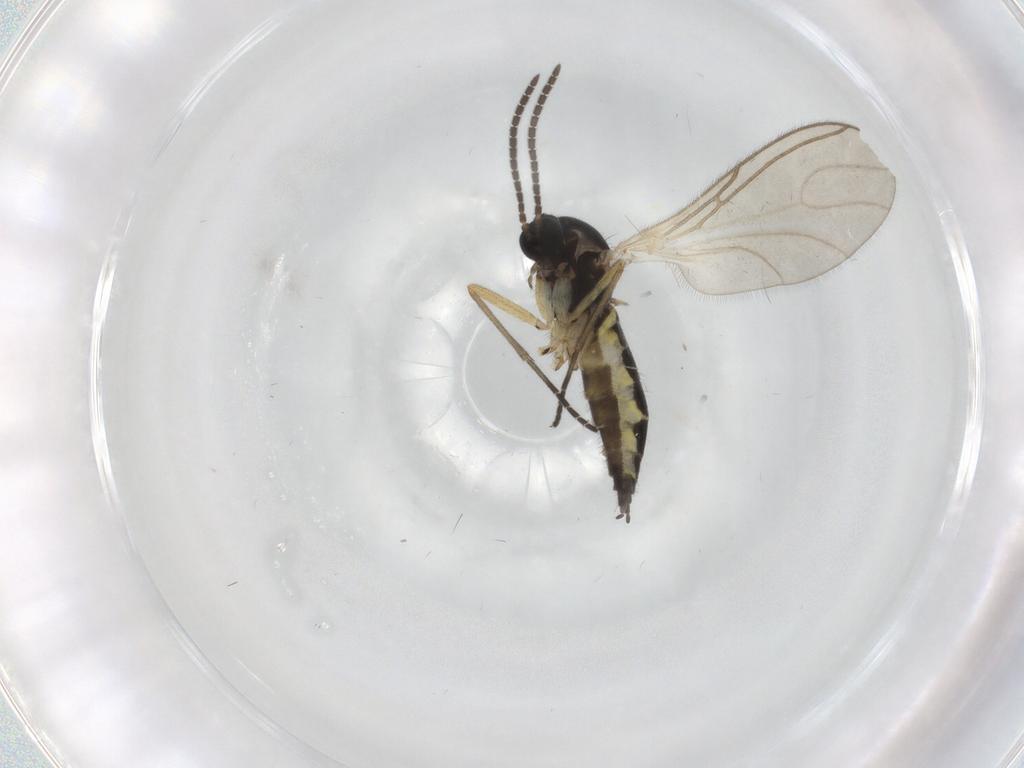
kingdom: Animalia
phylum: Arthropoda
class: Insecta
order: Diptera
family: Sciaridae
